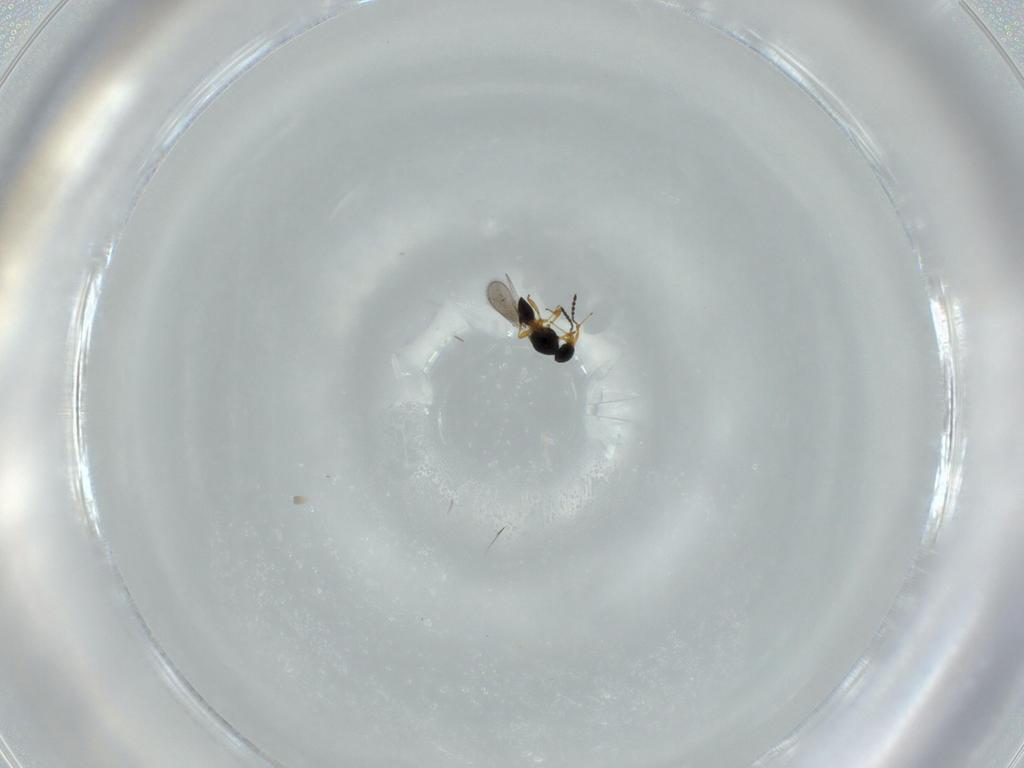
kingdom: Animalia
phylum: Arthropoda
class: Insecta
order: Hymenoptera
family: Platygastridae
